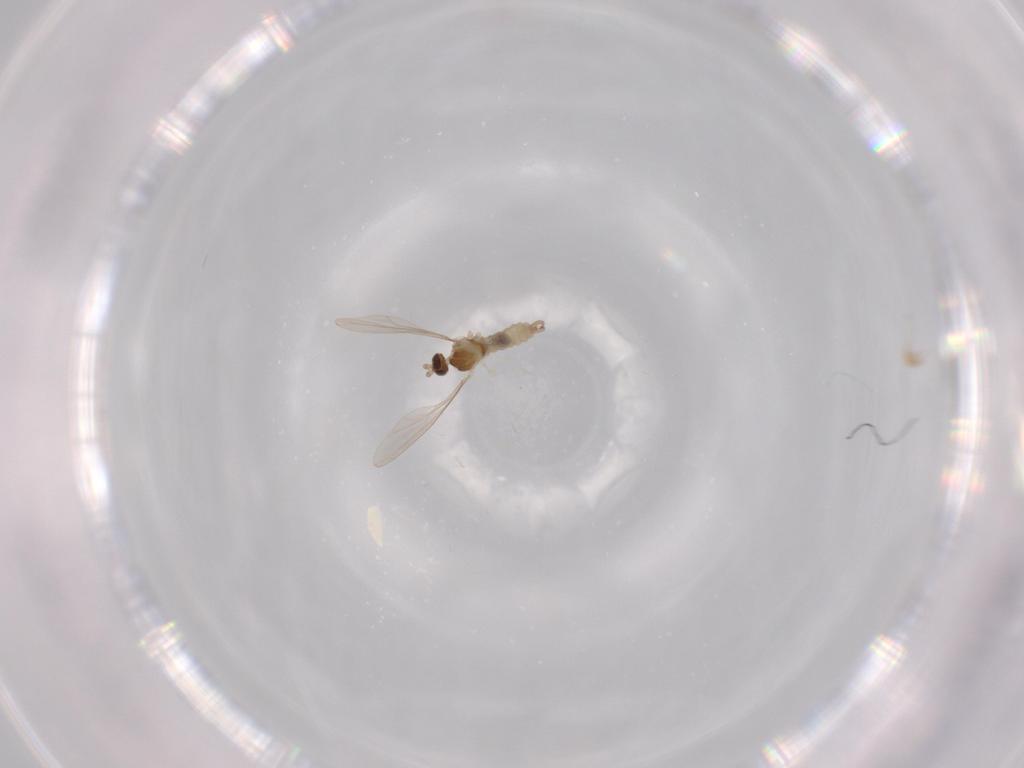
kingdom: Animalia
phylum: Arthropoda
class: Insecta
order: Diptera
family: Cecidomyiidae
